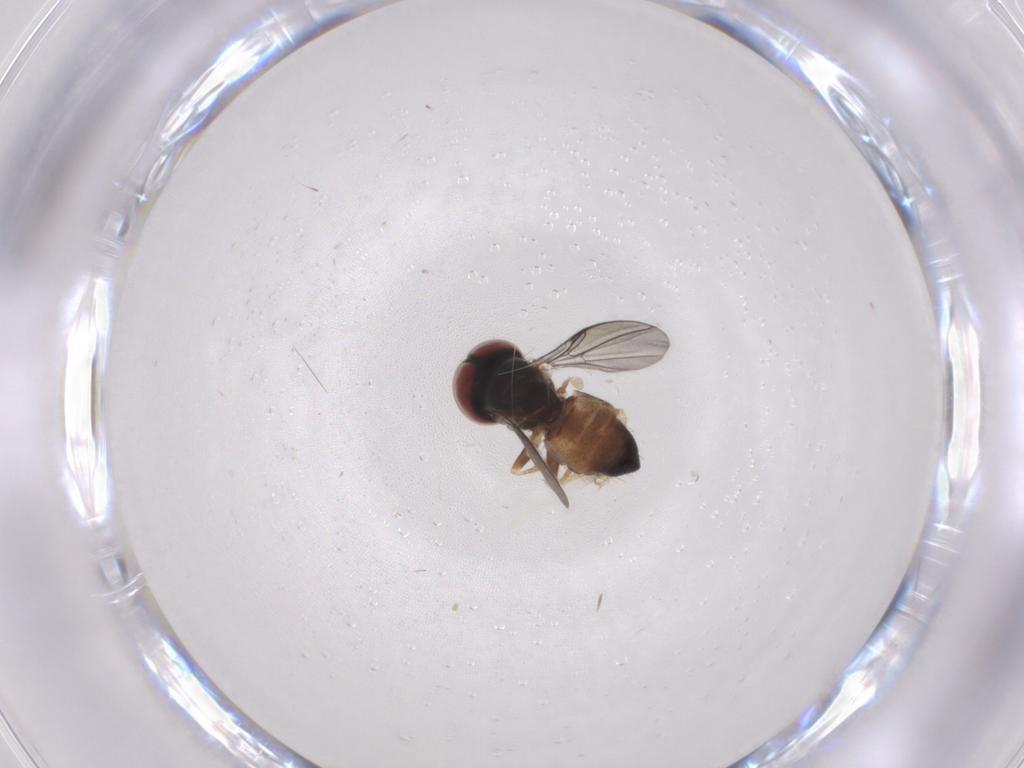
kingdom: Animalia
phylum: Arthropoda
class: Insecta
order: Diptera
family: Pipunculidae
